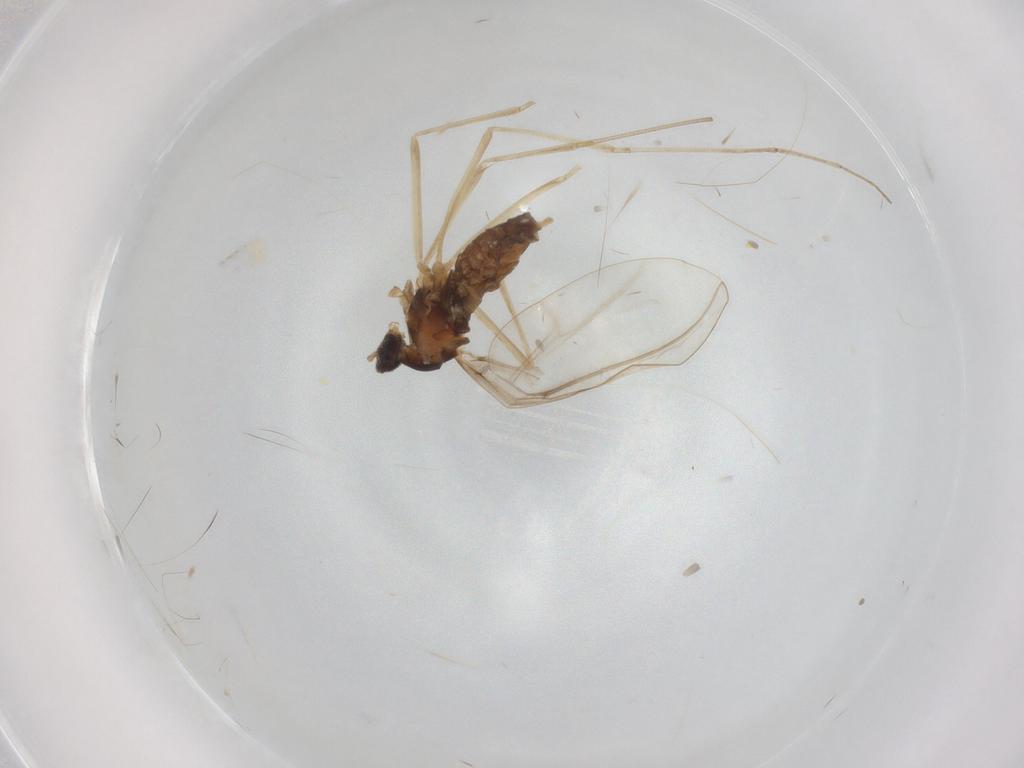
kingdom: Animalia
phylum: Arthropoda
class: Insecta
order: Diptera
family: Cecidomyiidae
